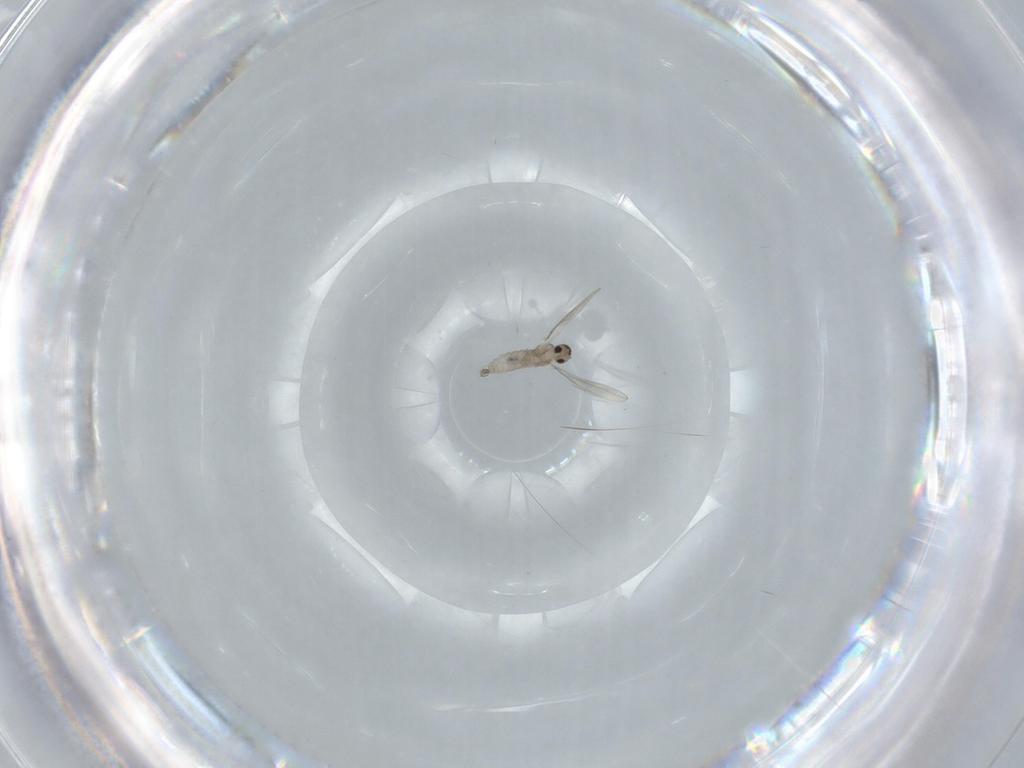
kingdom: Animalia
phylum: Arthropoda
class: Insecta
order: Diptera
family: Cecidomyiidae
